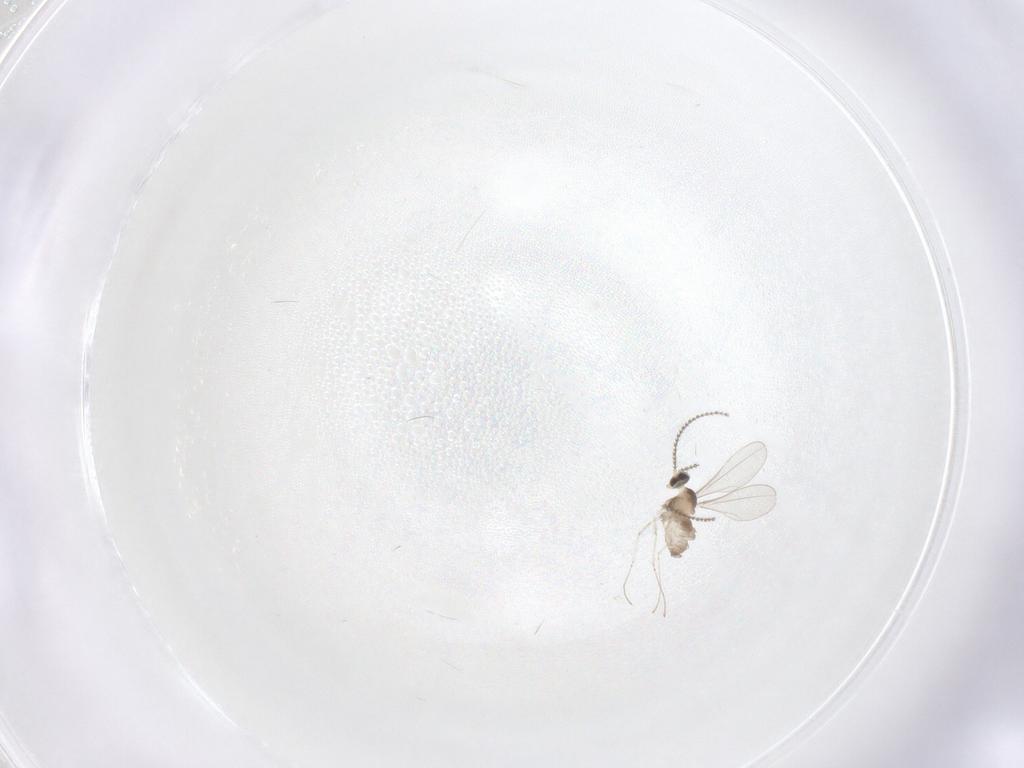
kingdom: Animalia
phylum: Arthropoda
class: Insecta
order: Diptera
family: Cecidomyiidae
